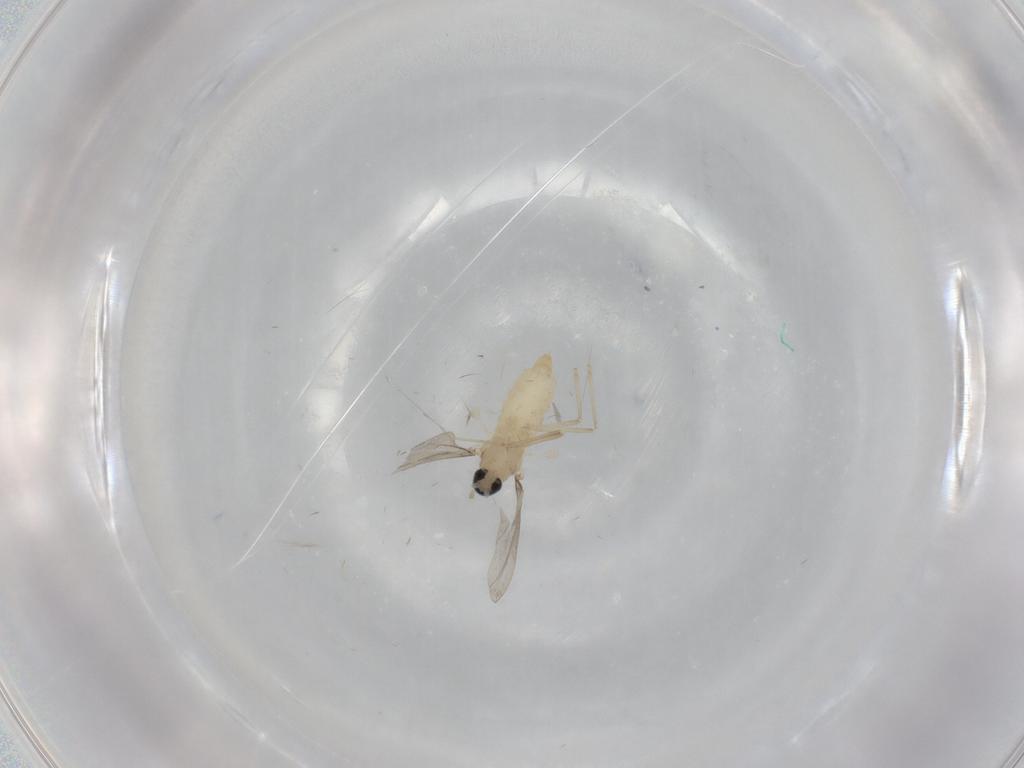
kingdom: Animalia
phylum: Arthropoda
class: Insecta
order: Diptera
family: Cecidomyiidae
